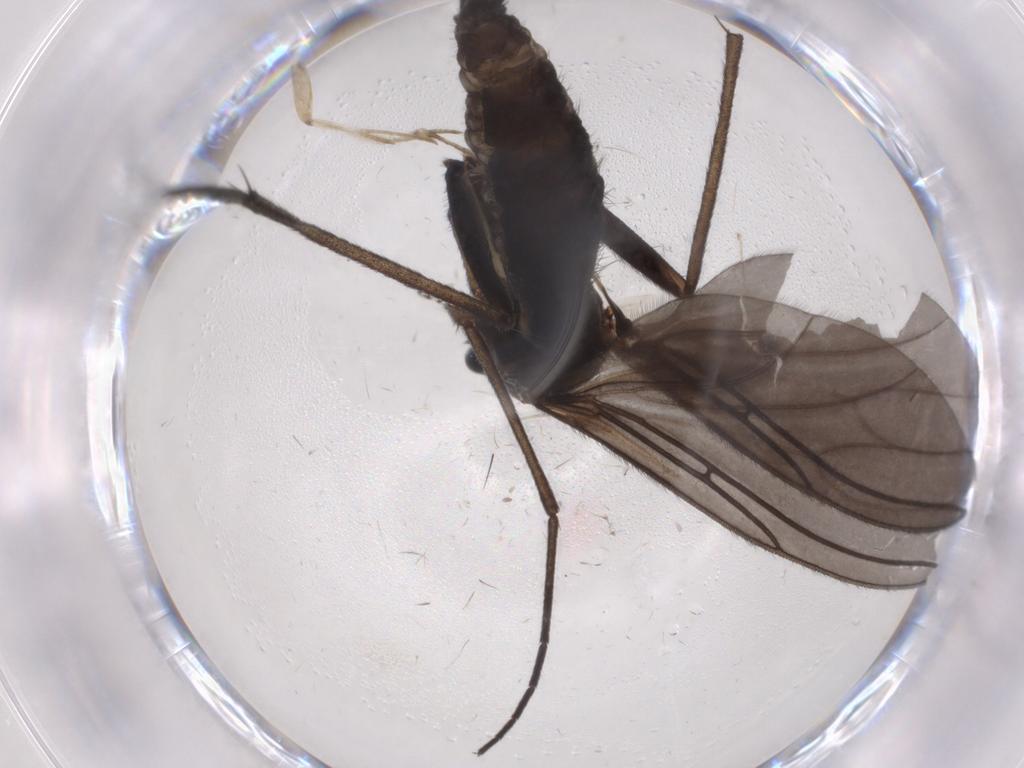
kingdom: Animalia
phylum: Arthropoda
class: Insecta
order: Diptera
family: Sciaridae
